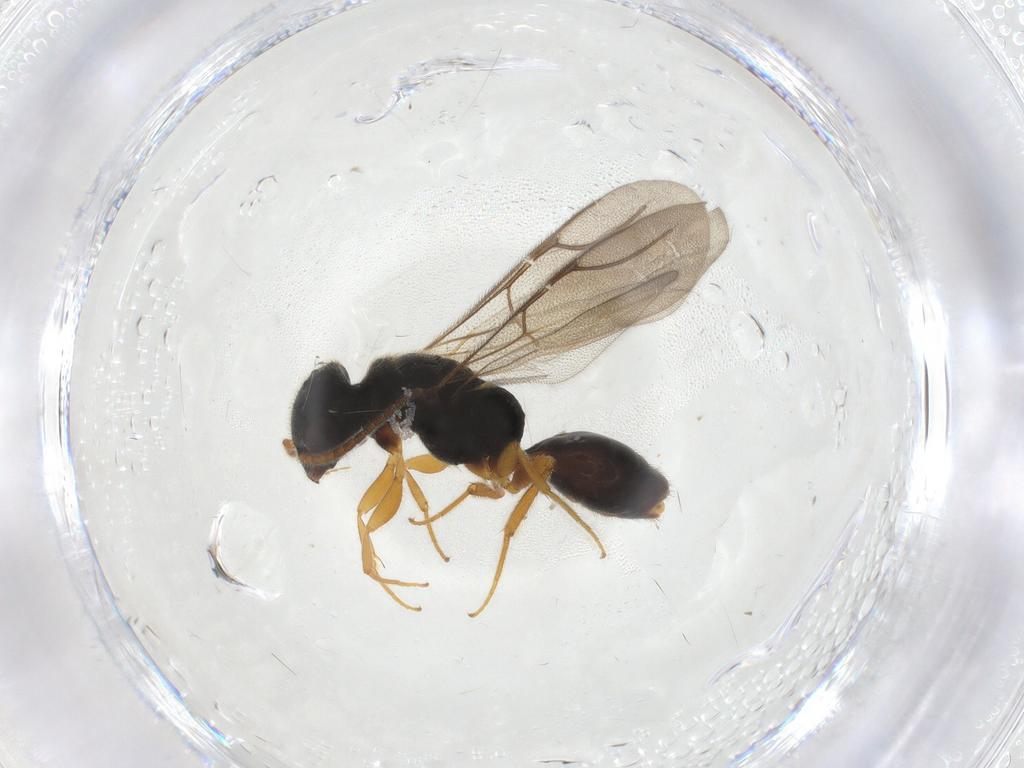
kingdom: Animalia
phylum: Arthropoda
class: Insecta
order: Hymenoptera
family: Bethylidae
